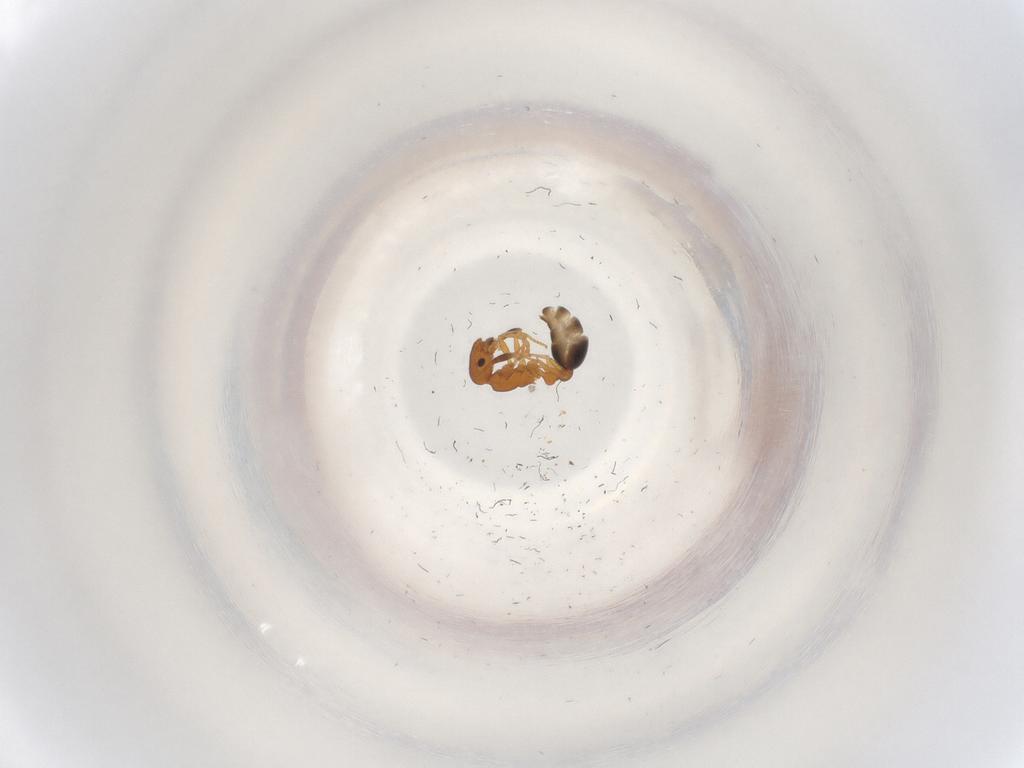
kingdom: Animalia
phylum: Arthropoda
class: Insecta
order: Hymenoptera
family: Formicidae
